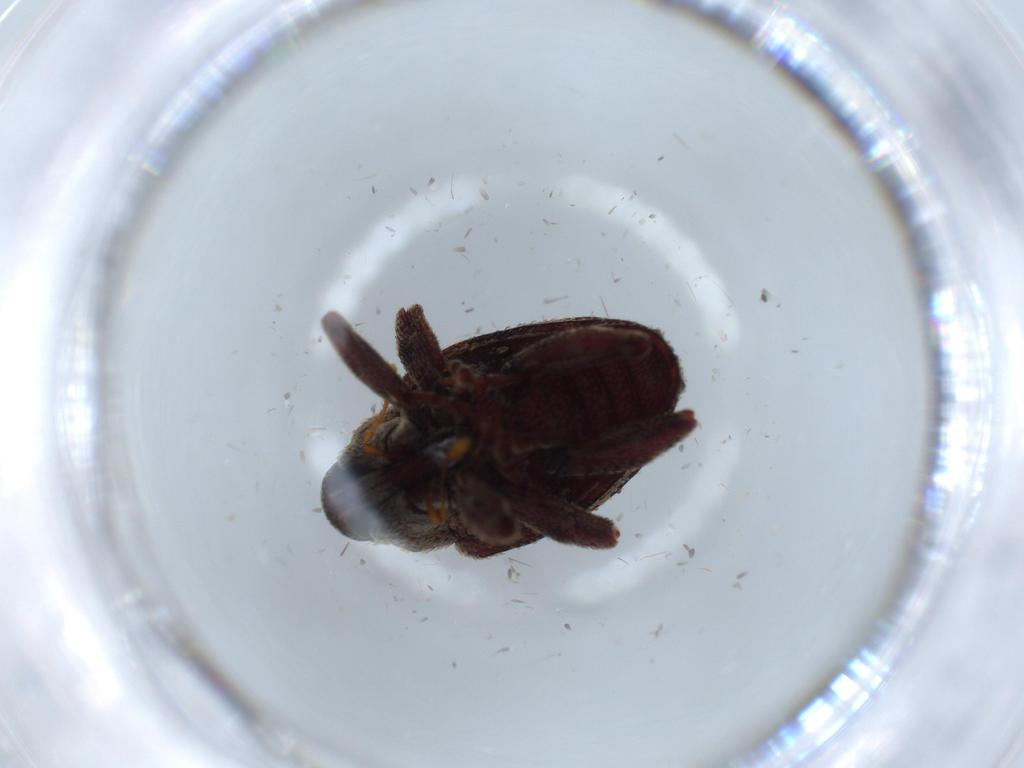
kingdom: Animalia
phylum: Arthropoda
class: Insecta
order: Coleoptera
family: Curculionidae
